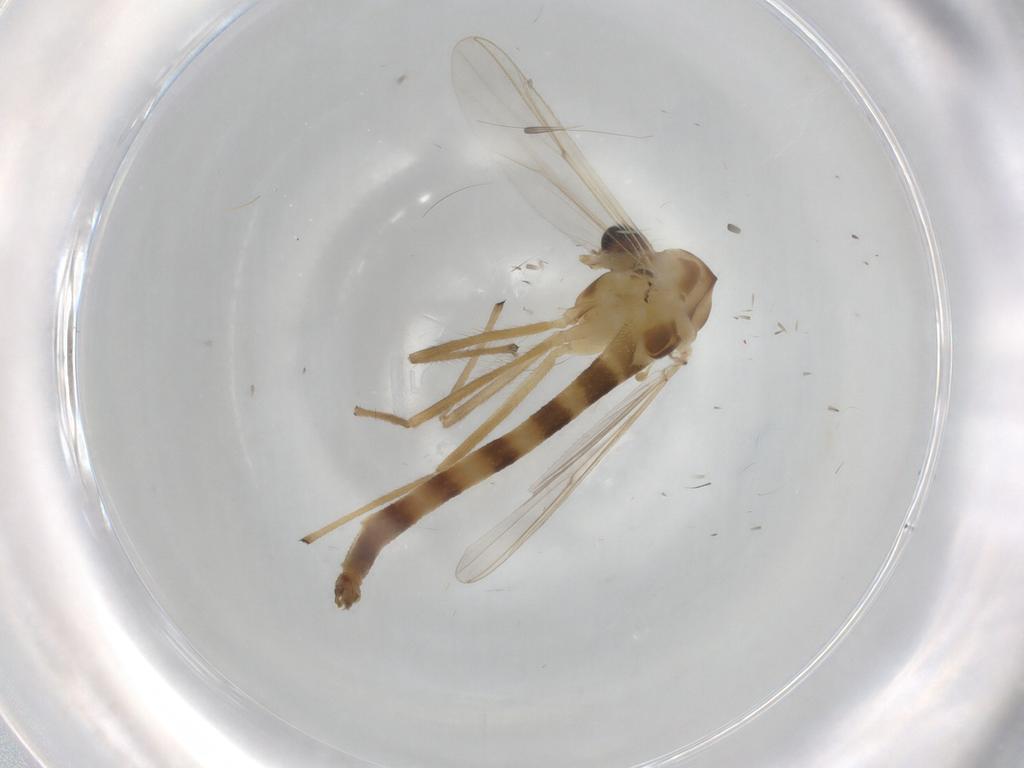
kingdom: Animalia
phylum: Arthropoda
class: Insecta
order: Diptera
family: Chironomidae
